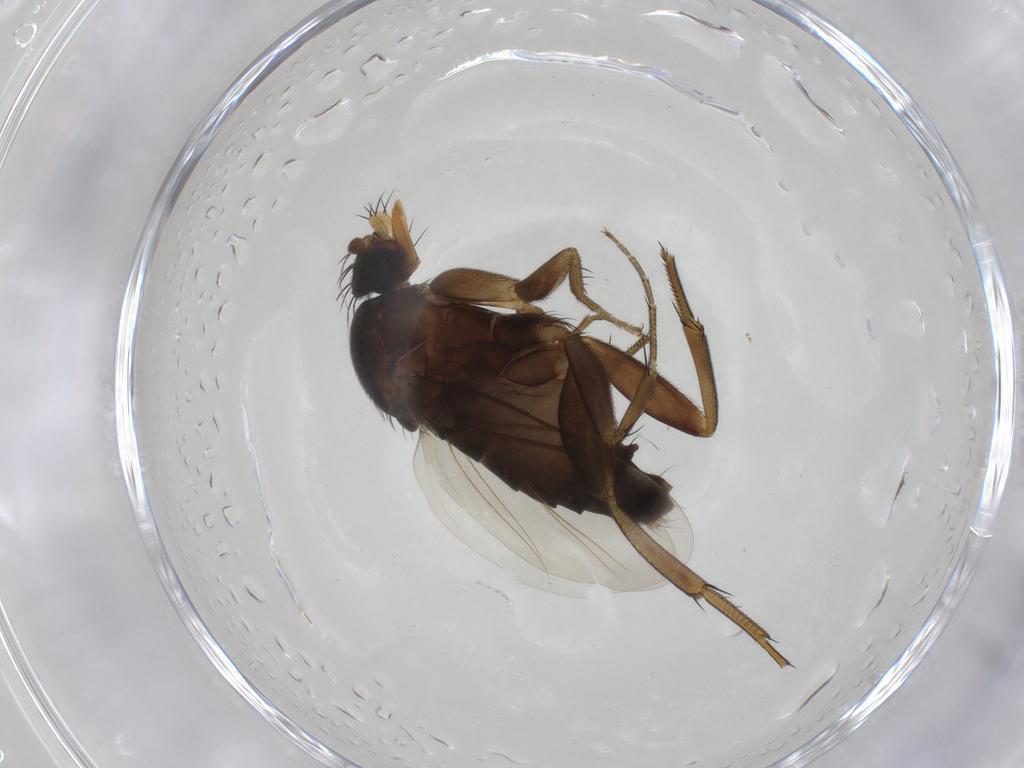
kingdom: Animalia
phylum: Arthropoda
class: Insecta
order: Diptera
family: Phoridae
